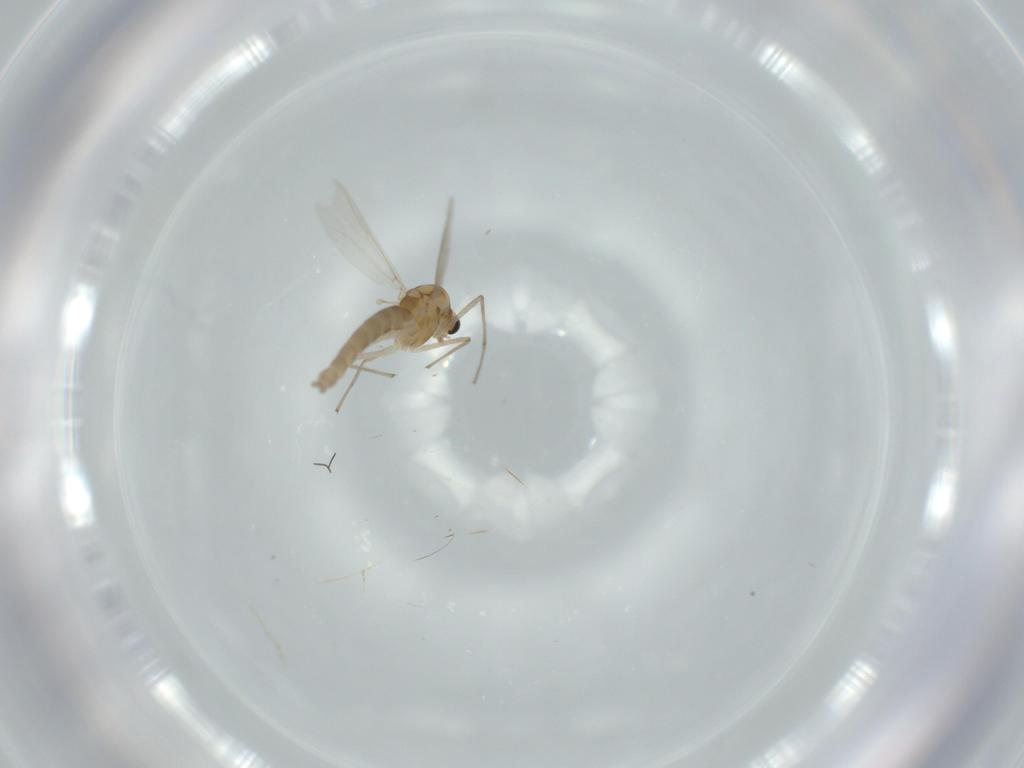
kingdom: Animalia
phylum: Arthropoda
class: Insecta
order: Diptera
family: Chironomidae
